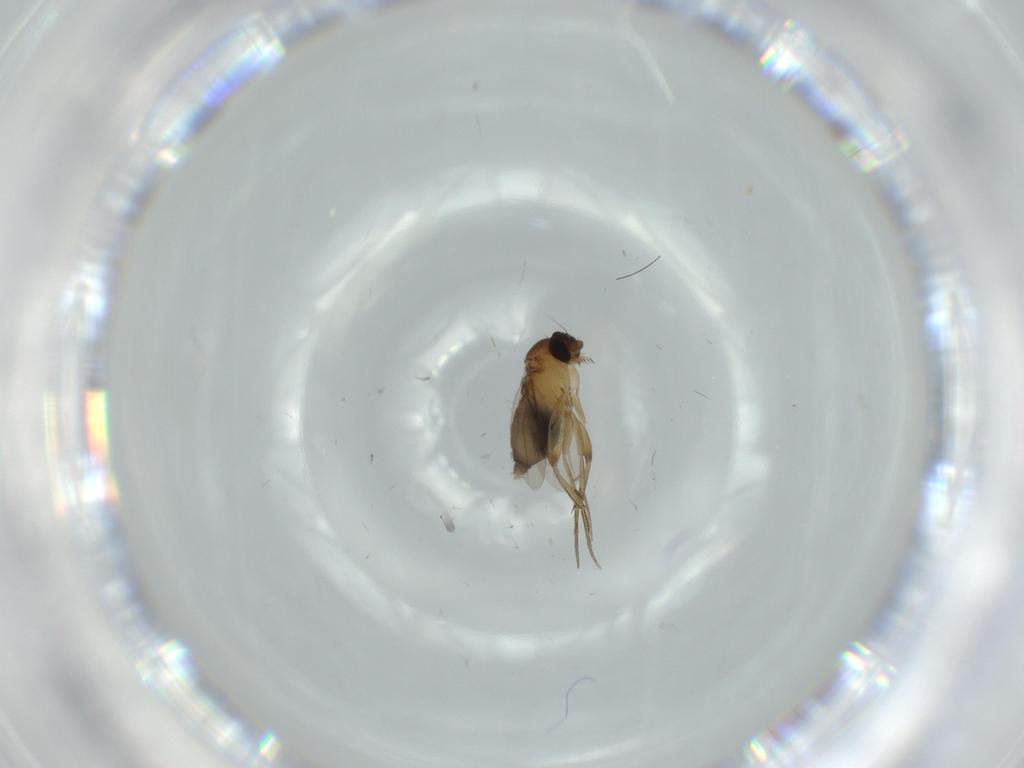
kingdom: Animalia
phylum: Arthropoda
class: Insecta
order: Diptera
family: Phoridae
